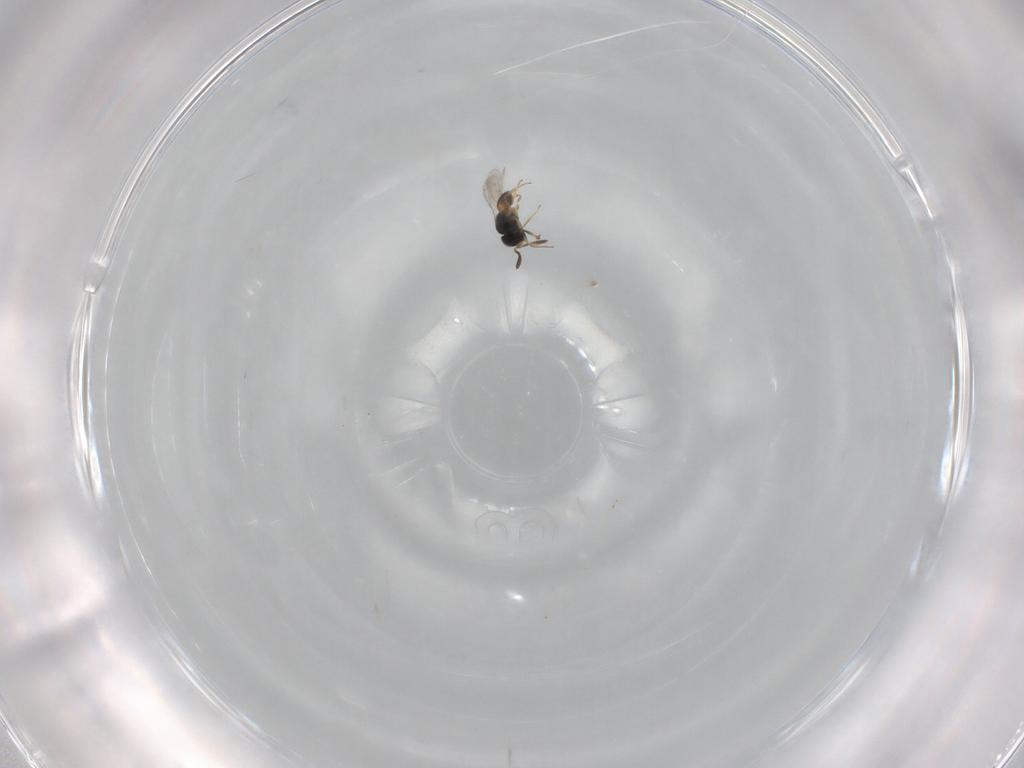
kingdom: Animalia
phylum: Arthropoda
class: Insecta
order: Hymenoptera
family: Scelionidae
